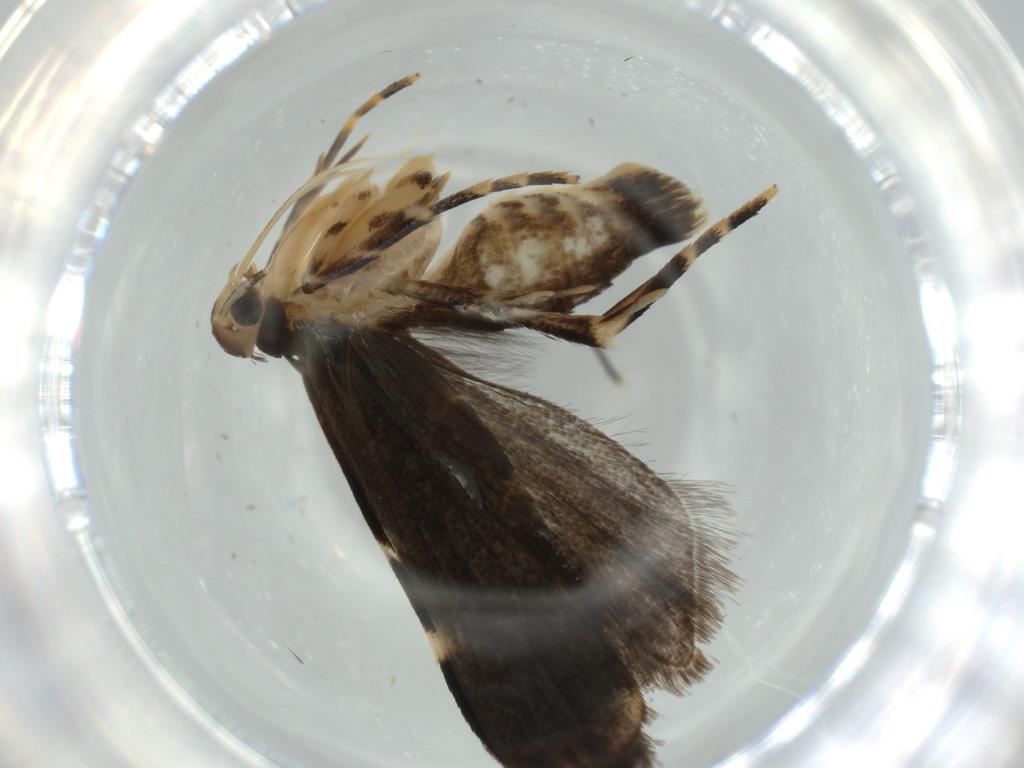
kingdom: Animalia
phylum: Arthropoda
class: Insecta
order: Lepidoptera
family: Cosmopterigidae
